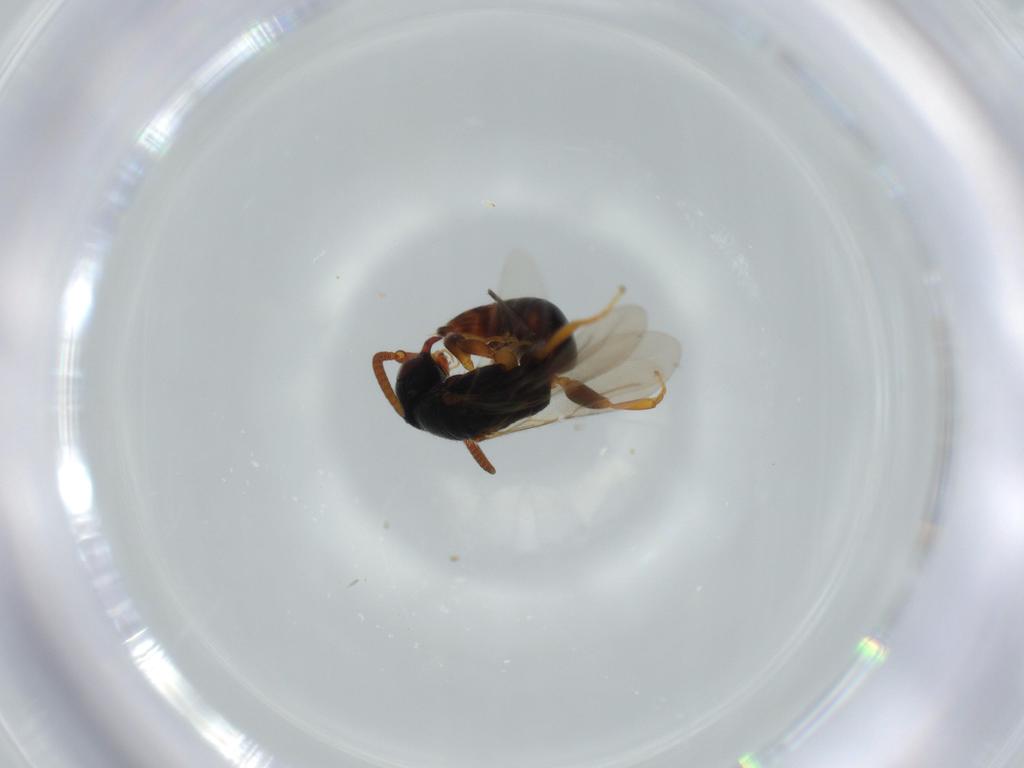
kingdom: Animalia
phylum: Arthropoda
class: Insecta
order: Hymenoptera
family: Bethylidae
